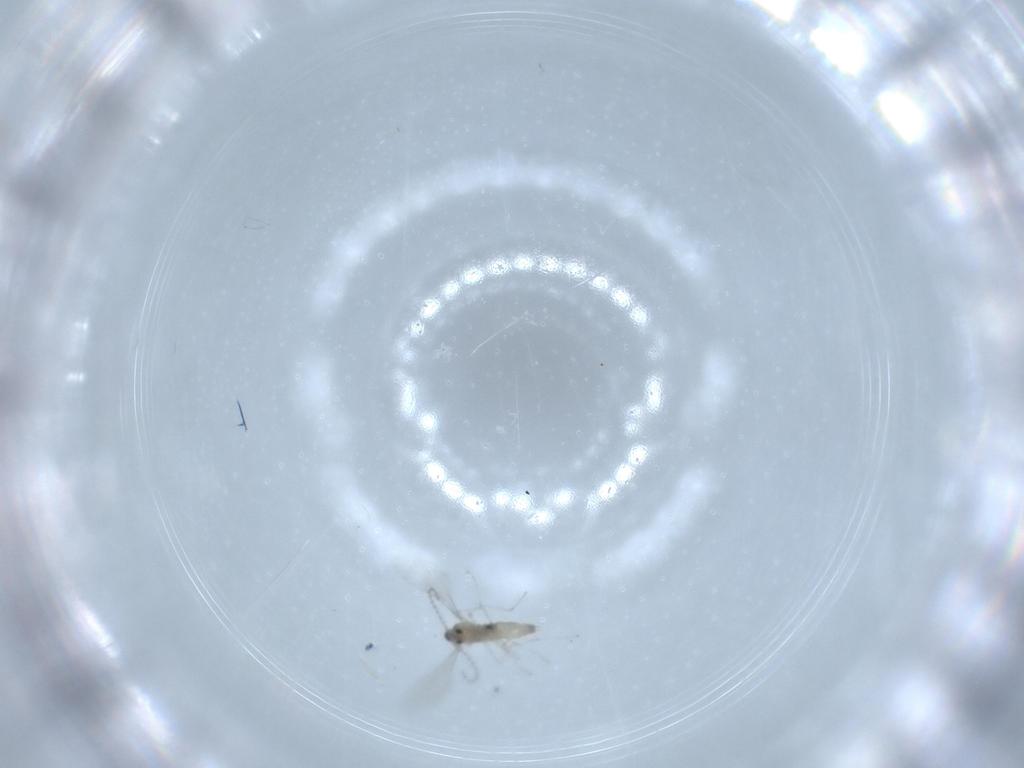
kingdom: Animalia
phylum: Arthropoda
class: Insecta
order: Diptera
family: Cecidomyiidae
